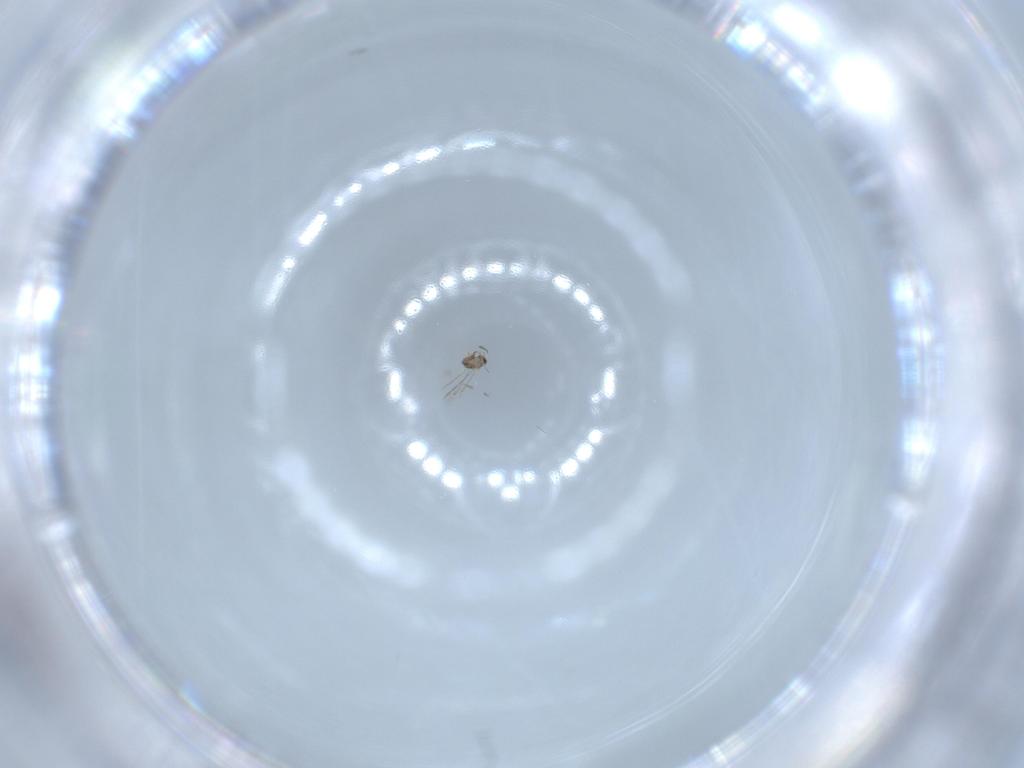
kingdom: Animalia
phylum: Arthropoda
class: Insecta
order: Hymenoptera
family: Mymaridae
